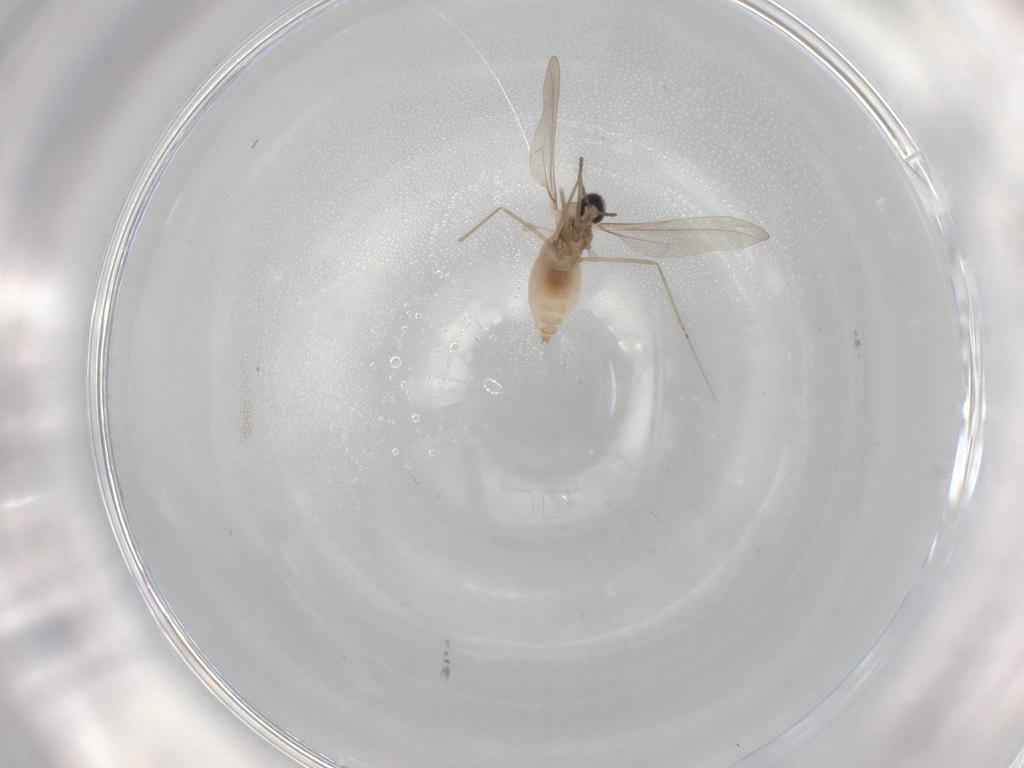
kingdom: Animalia
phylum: Arthropoda
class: Insecta
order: Diptera
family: Cecidomyiidae
